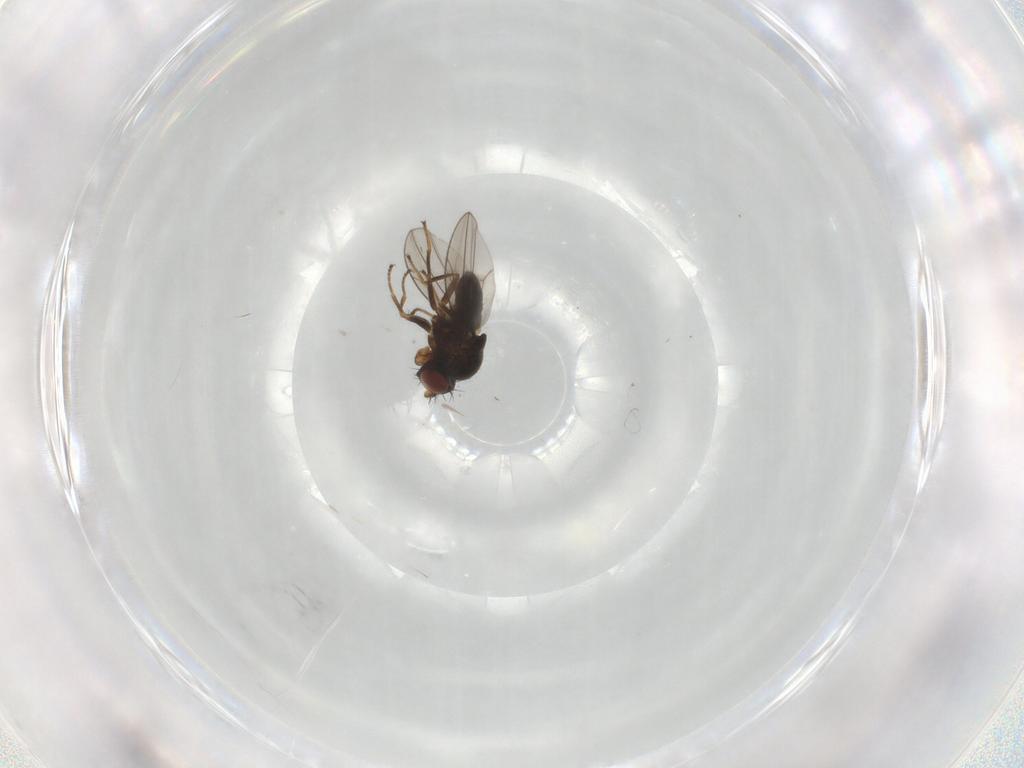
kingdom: Animalia
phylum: Arthropoda
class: Insecta
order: Diptera
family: Ephydridae
